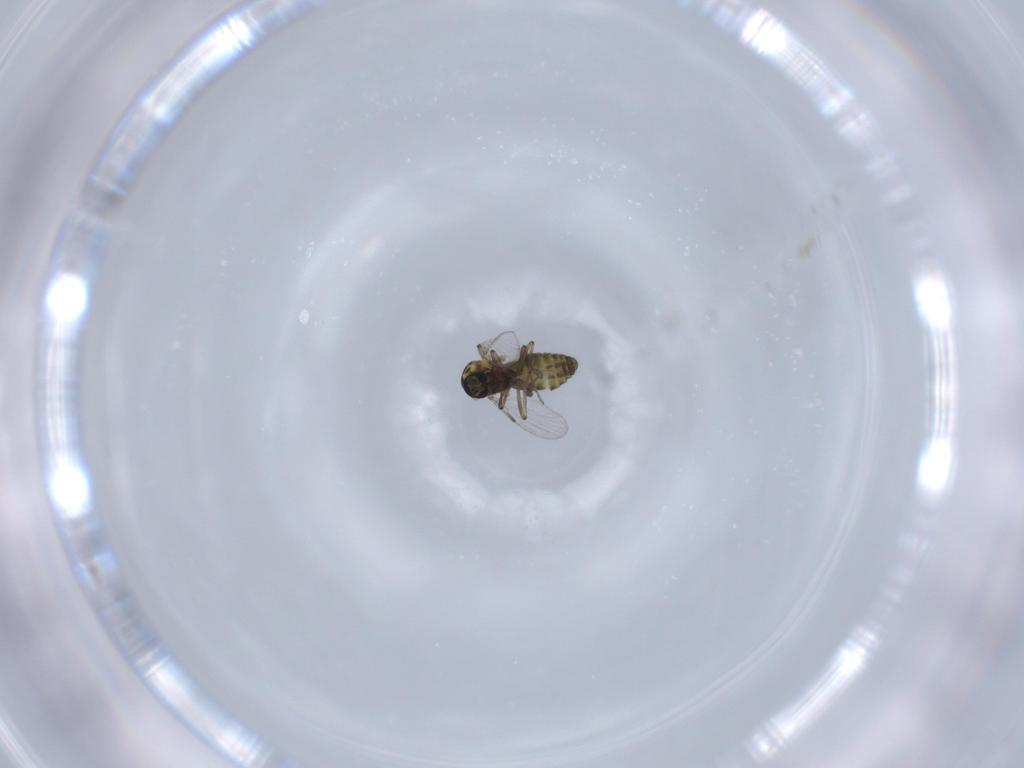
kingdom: Animalia
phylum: Arthropoda
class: Insecta
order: Diptera
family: Ceratopogonidae
